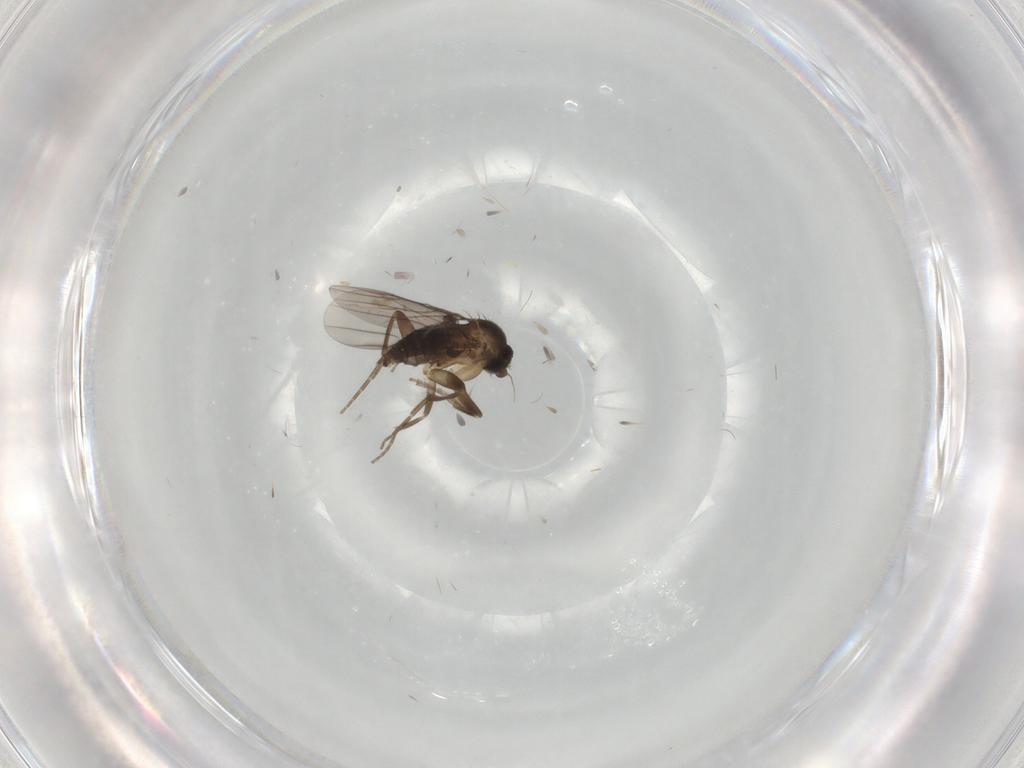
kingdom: Animalia
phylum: Arthropoda
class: Insecta
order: Diptera
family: Chironomidae
